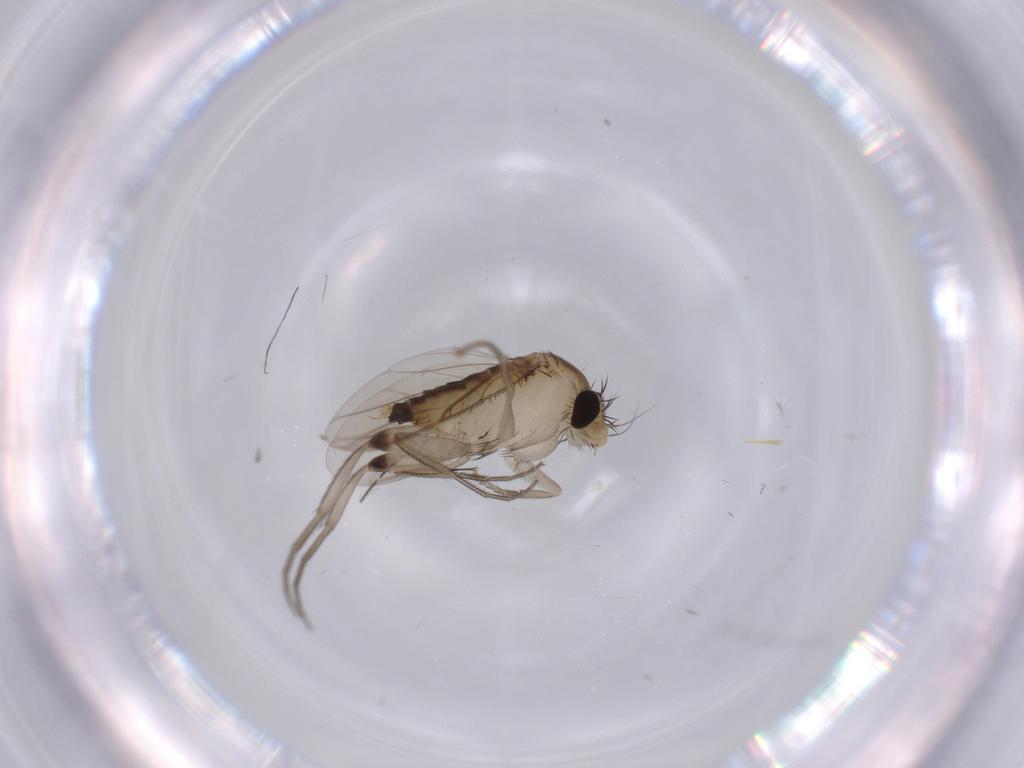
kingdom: Animalia
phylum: Arthropoda
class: Insecta
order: Diptera
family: Phoridae
